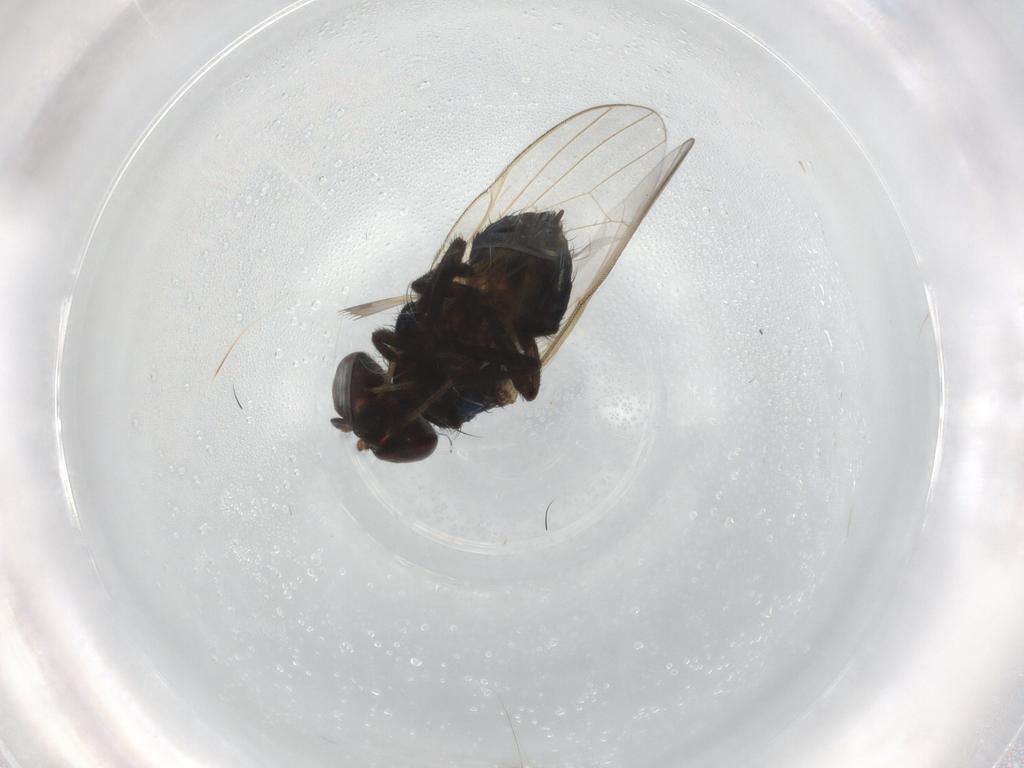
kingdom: Animalia
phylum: Arthropoda
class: Insecta
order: Diptera
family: Lonchaeidae
